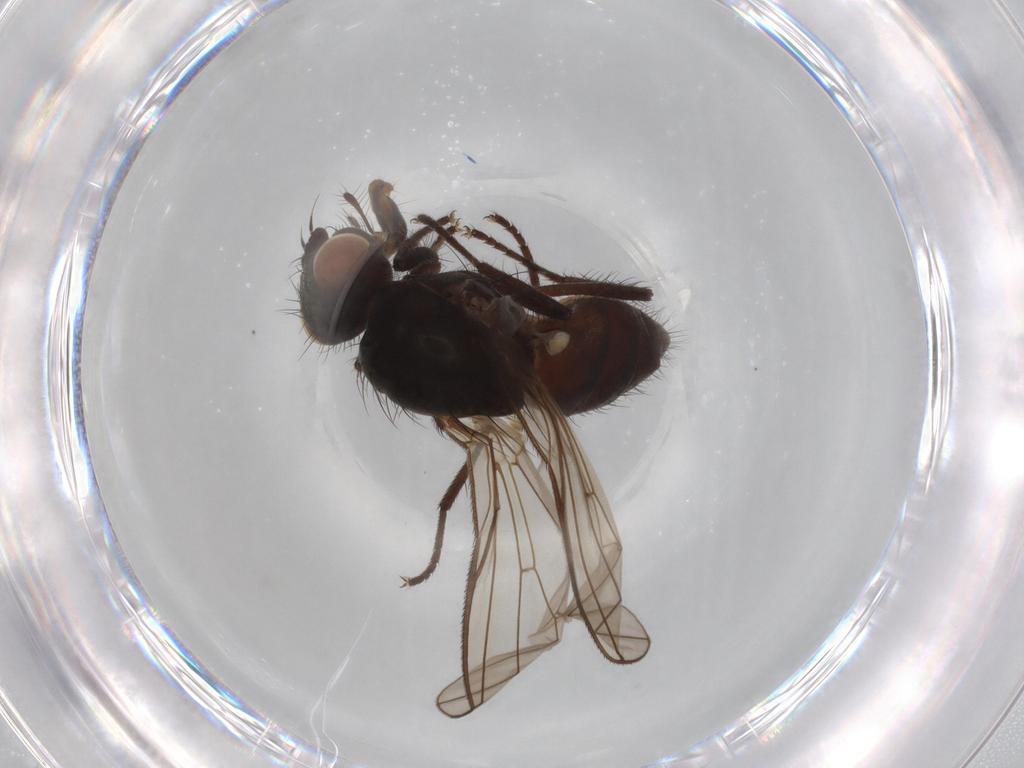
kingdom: Animalia
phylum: Arthropoda
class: Insecta
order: Diptera
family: Anthomyiidae
